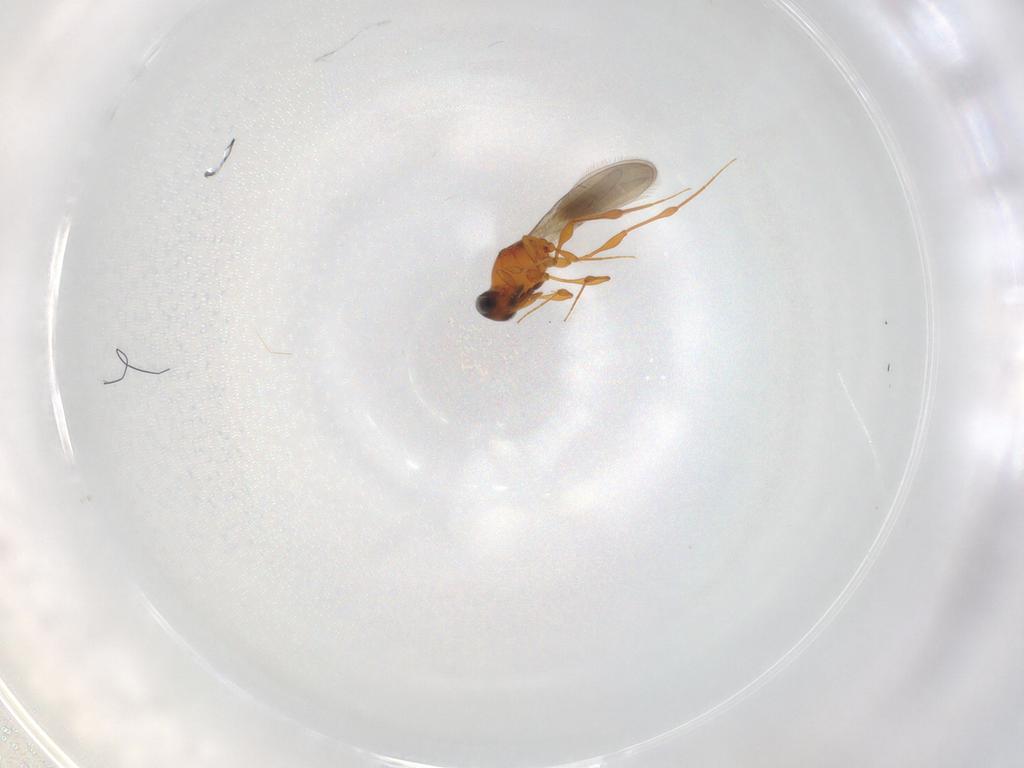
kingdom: Animalia
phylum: Arthropoda
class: Insecta
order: Hymenoptera
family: Platygastridae
